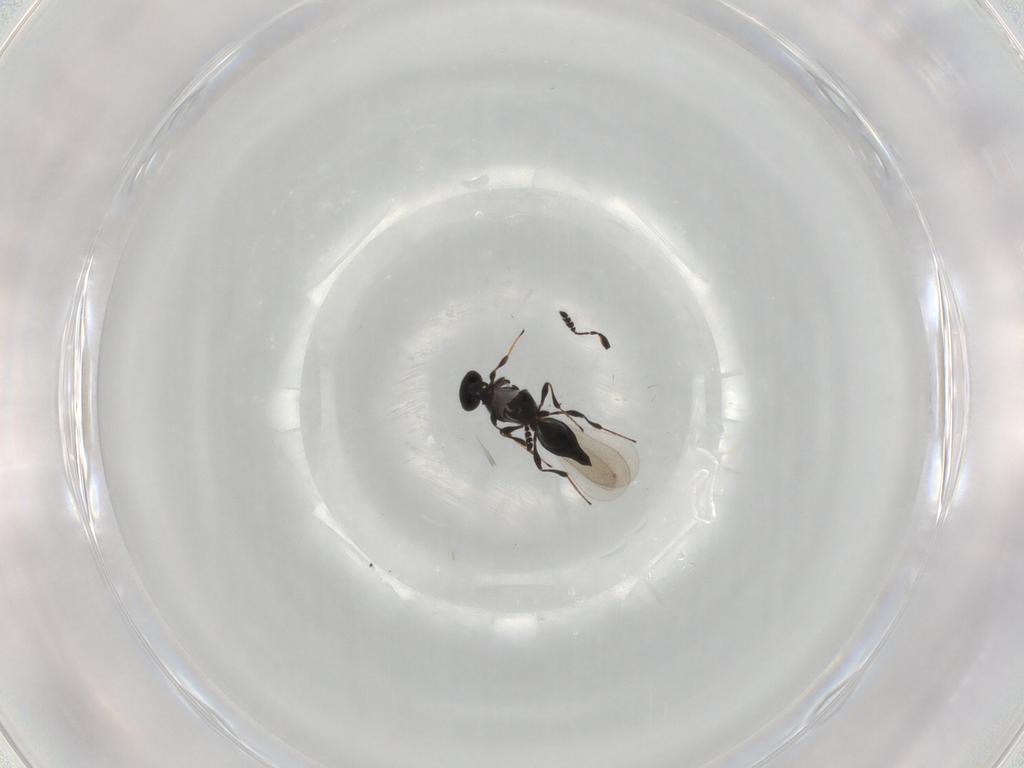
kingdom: Animalia
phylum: Arthropoda
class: Insecta
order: Hymenoptera
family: Platygastridae
